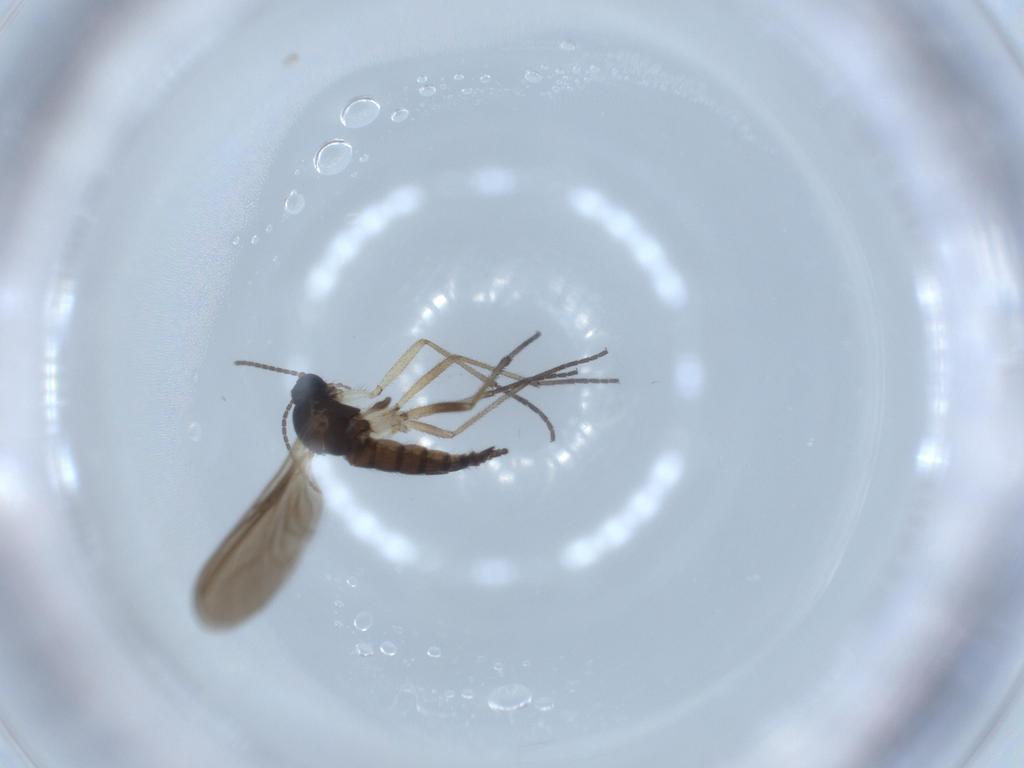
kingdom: Animalia
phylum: Arthropoda
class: Insecta
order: Diptera
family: Sciaridae
